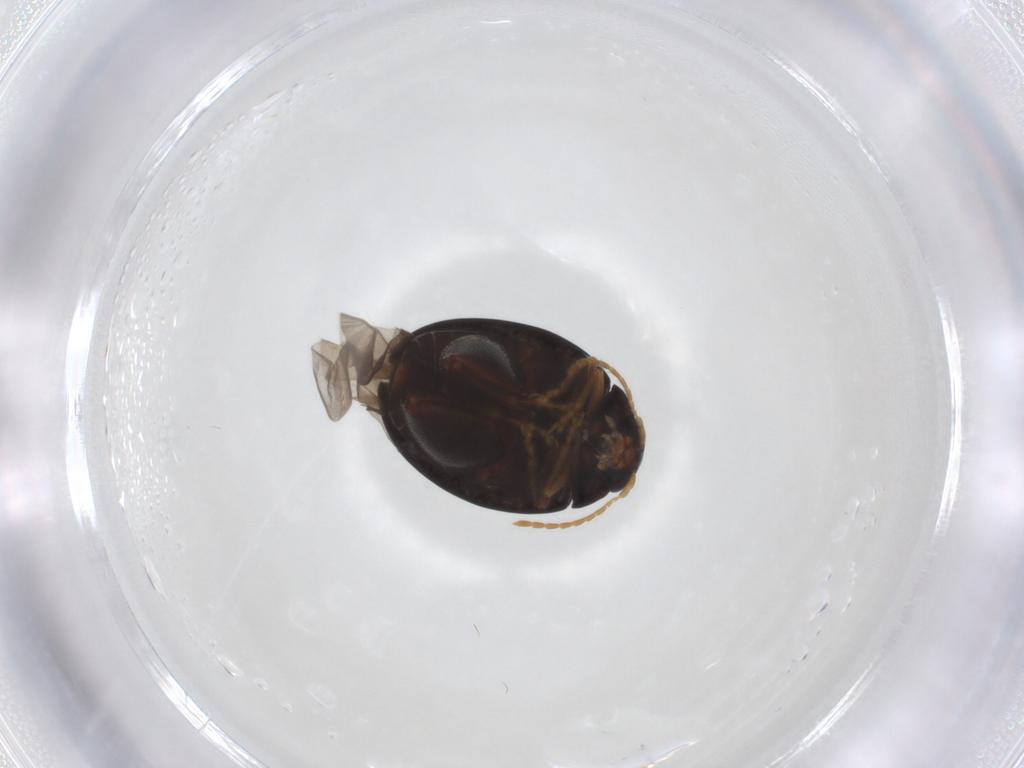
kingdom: Animalia
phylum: Arthropoda
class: Insecta
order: Coleoptera
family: Chrysomelidae
